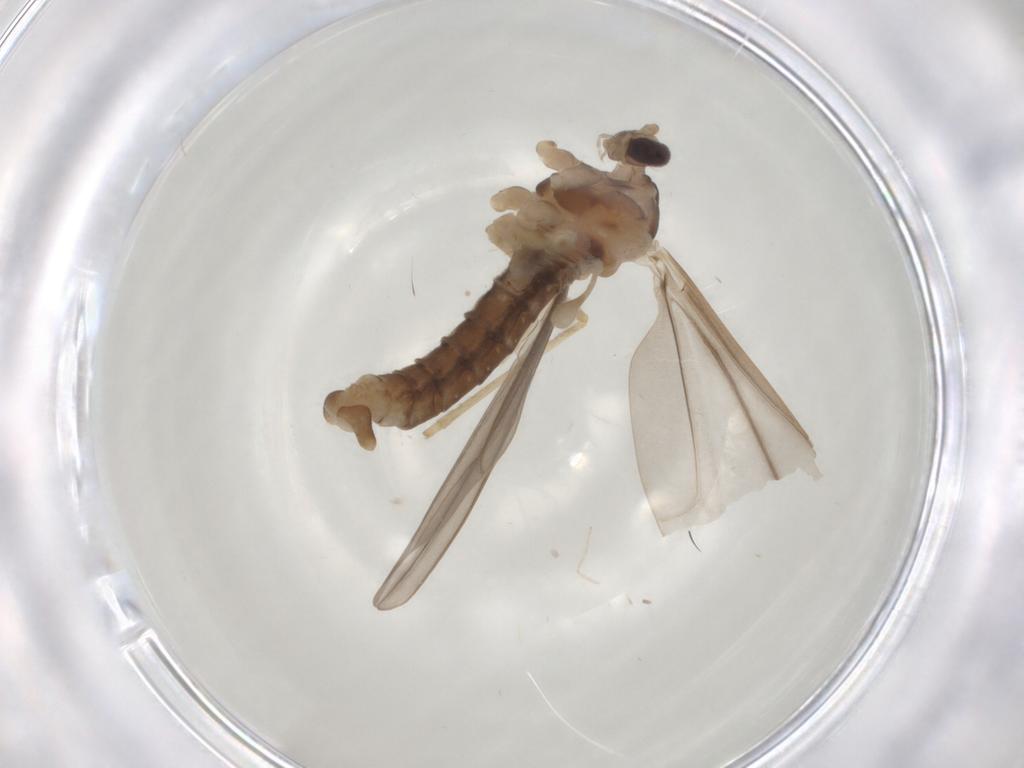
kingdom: Animalia
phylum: Arthropoda
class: Insecta
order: Diptera
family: Cecidomyiidae
